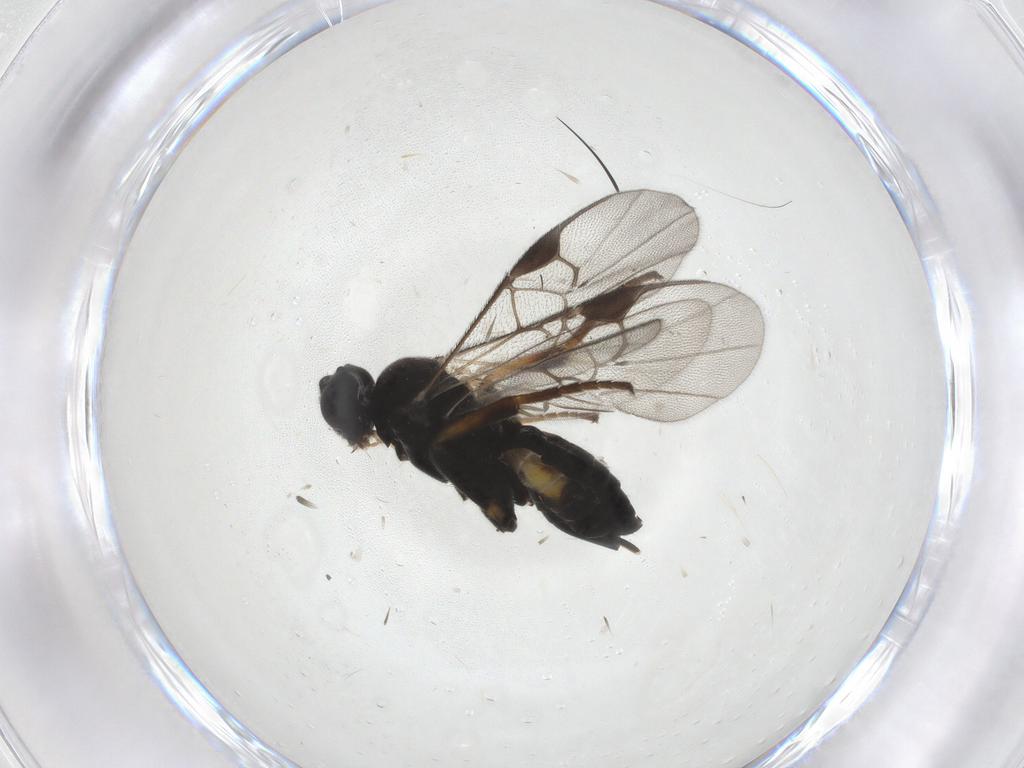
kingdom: Animalia
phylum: Arthropoda
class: Insecta
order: Hymenoptera
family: Braconidae
